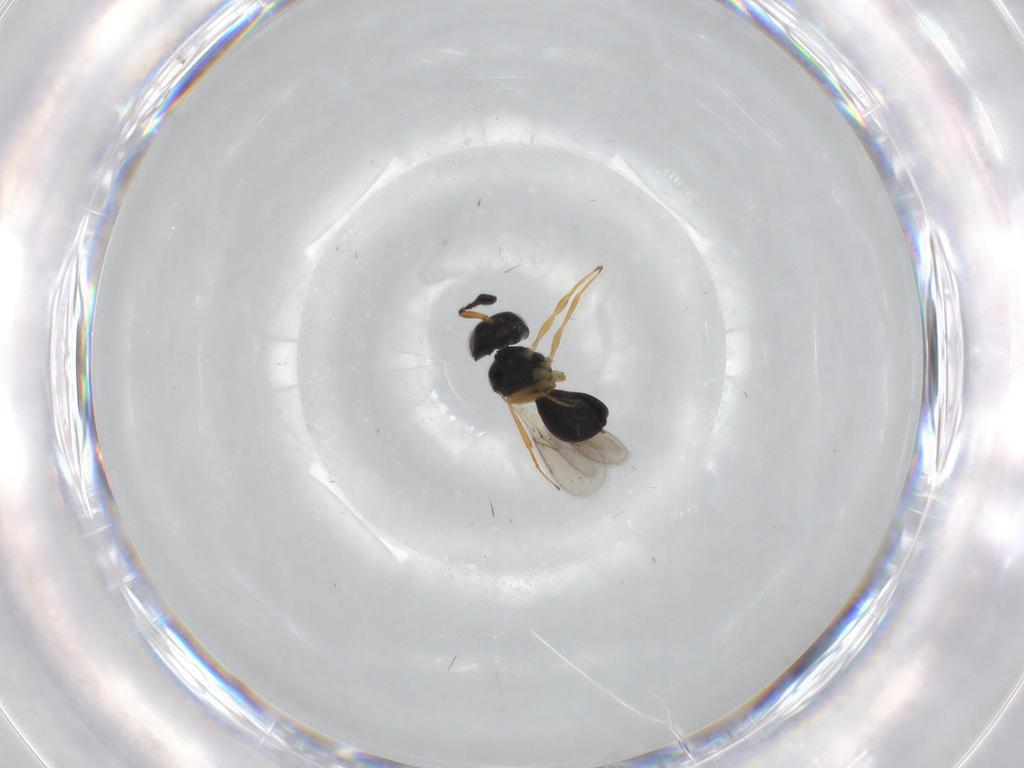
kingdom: Animalia
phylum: Arthropoda
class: Insecta
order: Hymenoptera
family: Scelionidae
